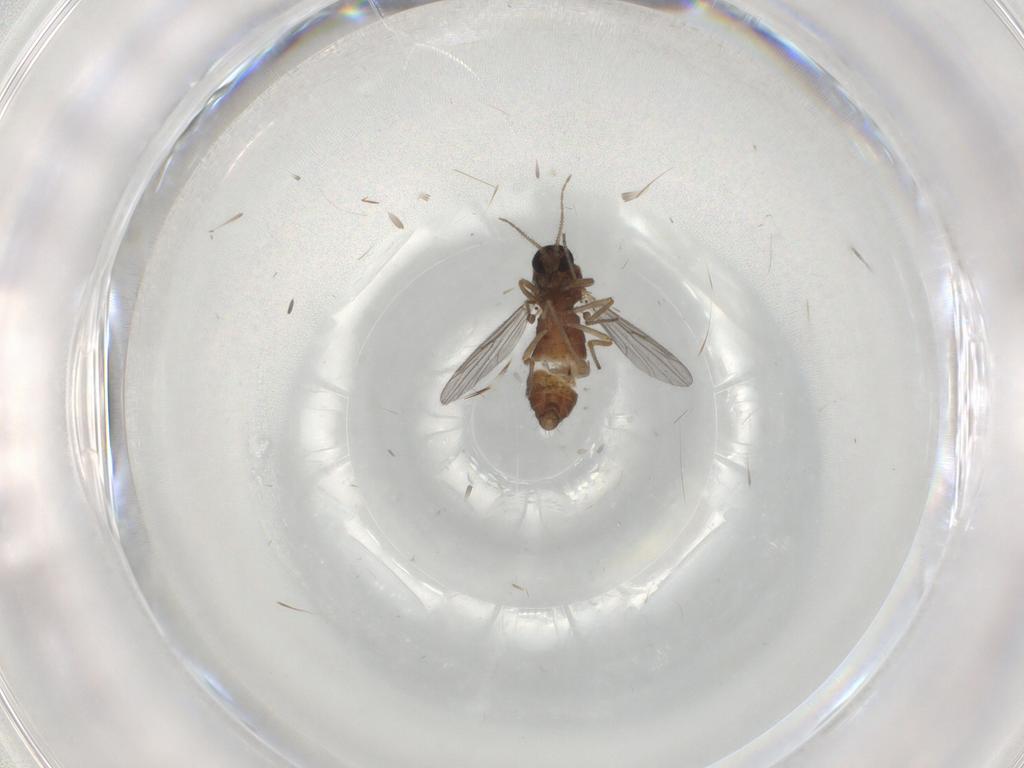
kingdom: Animalia
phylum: Arthropoda
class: Insecta
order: Diptera
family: Ceratopogonidae
